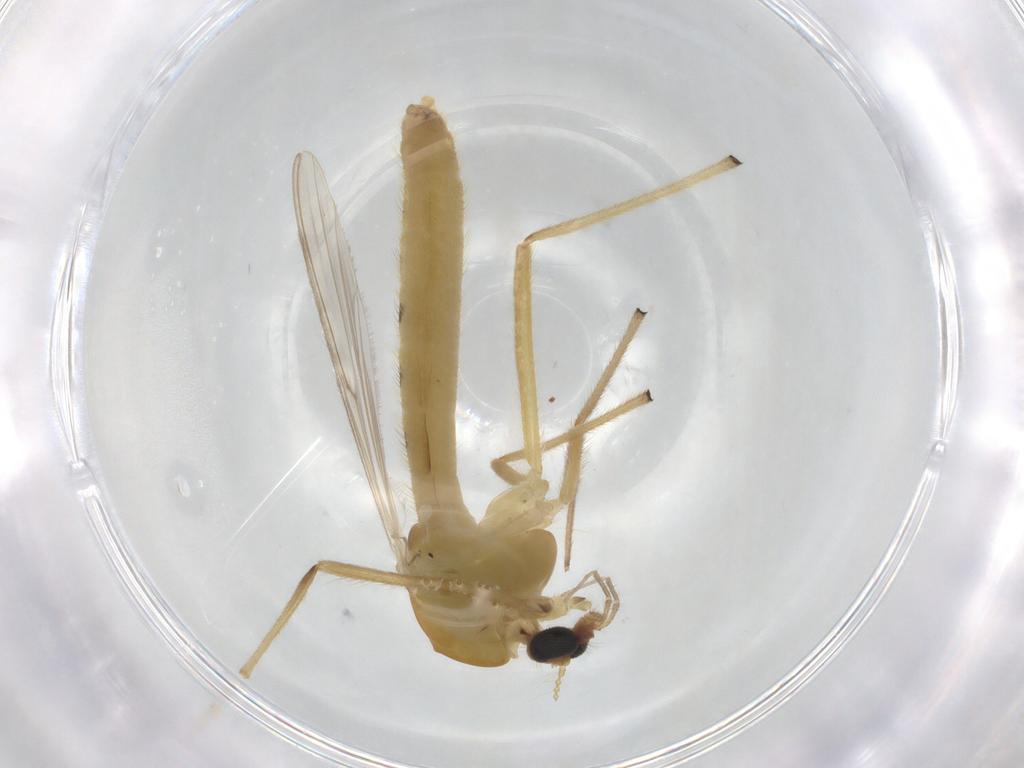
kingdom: Animalia
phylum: Arthropoda
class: Insecta
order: Diptera
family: Chironomidae
